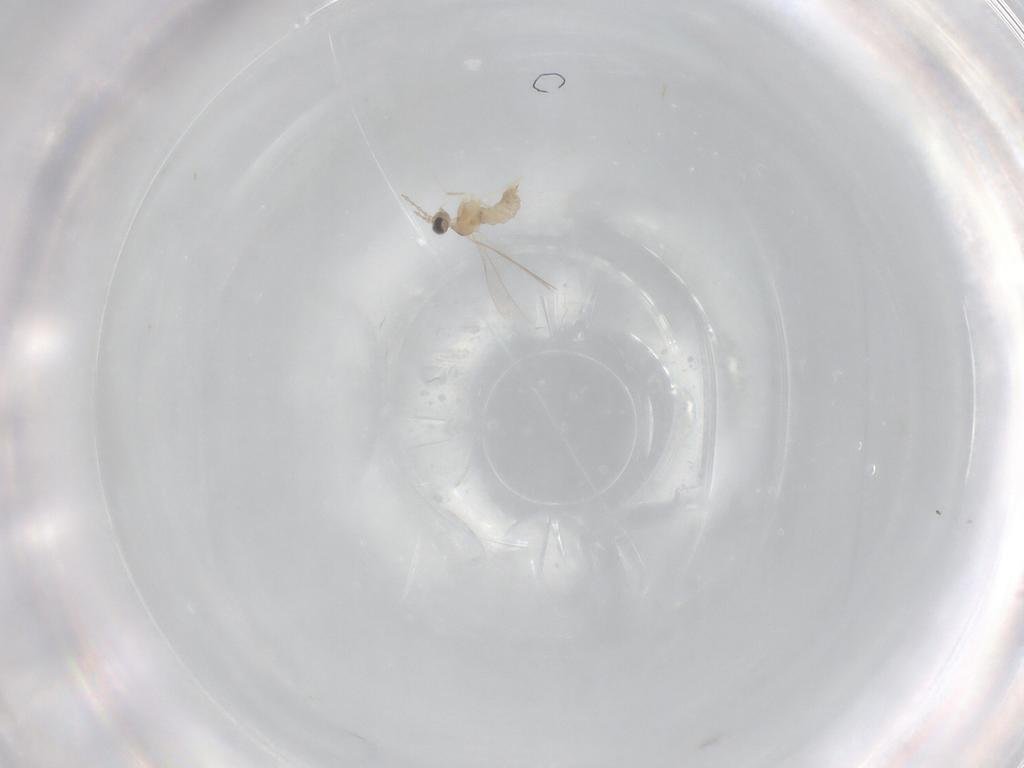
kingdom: Animalia
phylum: Arthropoda
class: Insecta
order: Diptera
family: Cecidomyiidae
